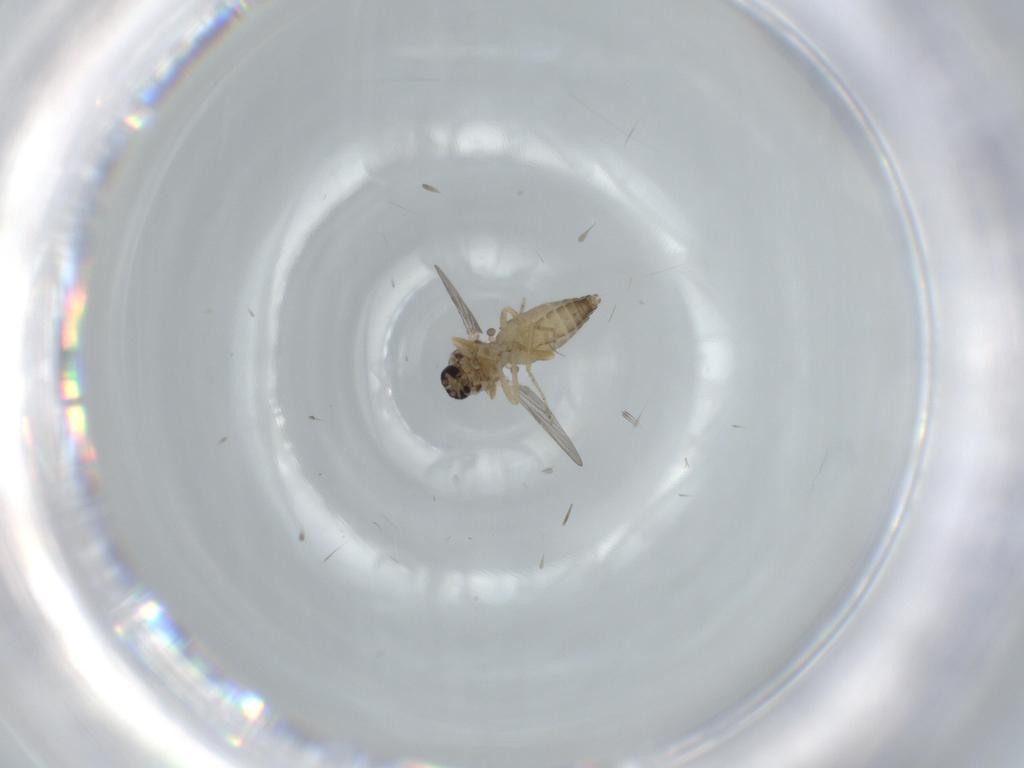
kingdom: Animalia
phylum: Arthropoda
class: Insecta
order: Diptera
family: Ceratopogonidae
